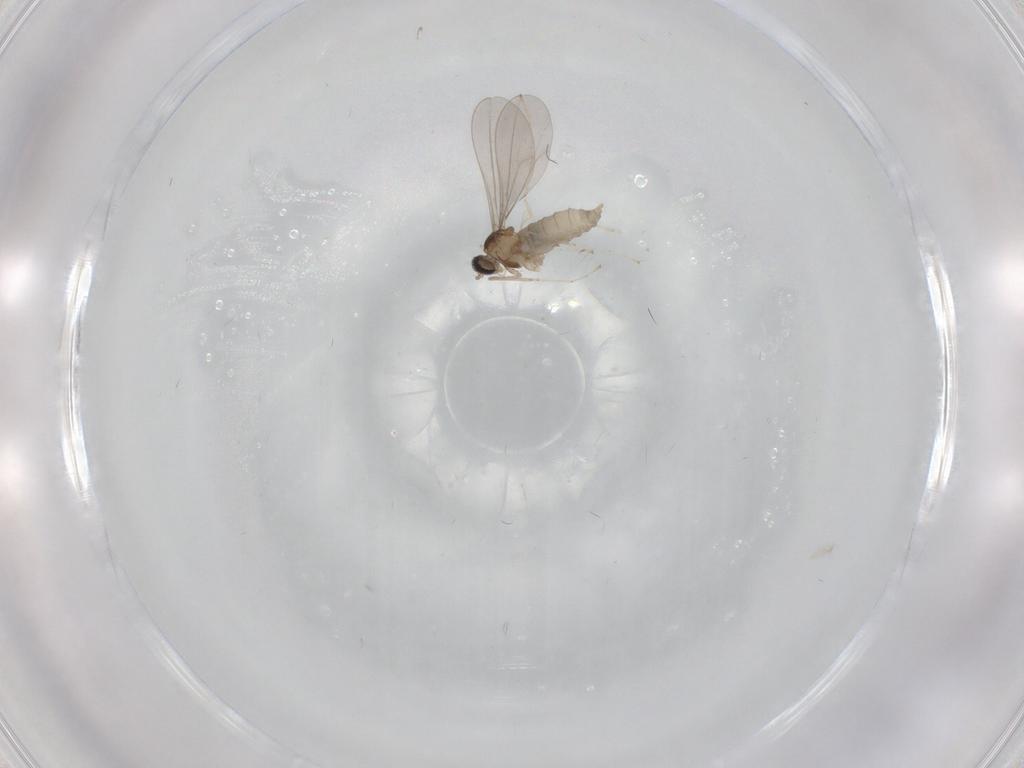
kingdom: Animalia
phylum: Arthropoda
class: Insecta
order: Diptera
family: Cecidomyiidae
